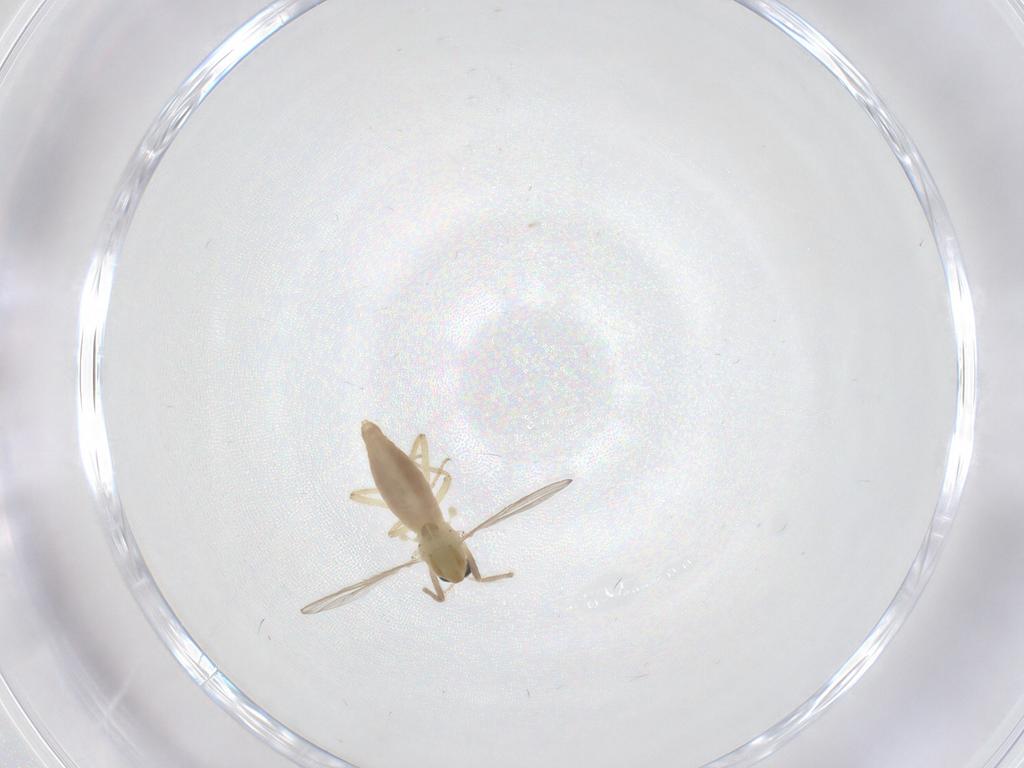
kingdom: Animalia
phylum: Arthropoda
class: Insecta
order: Diptera
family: Chironomidae
